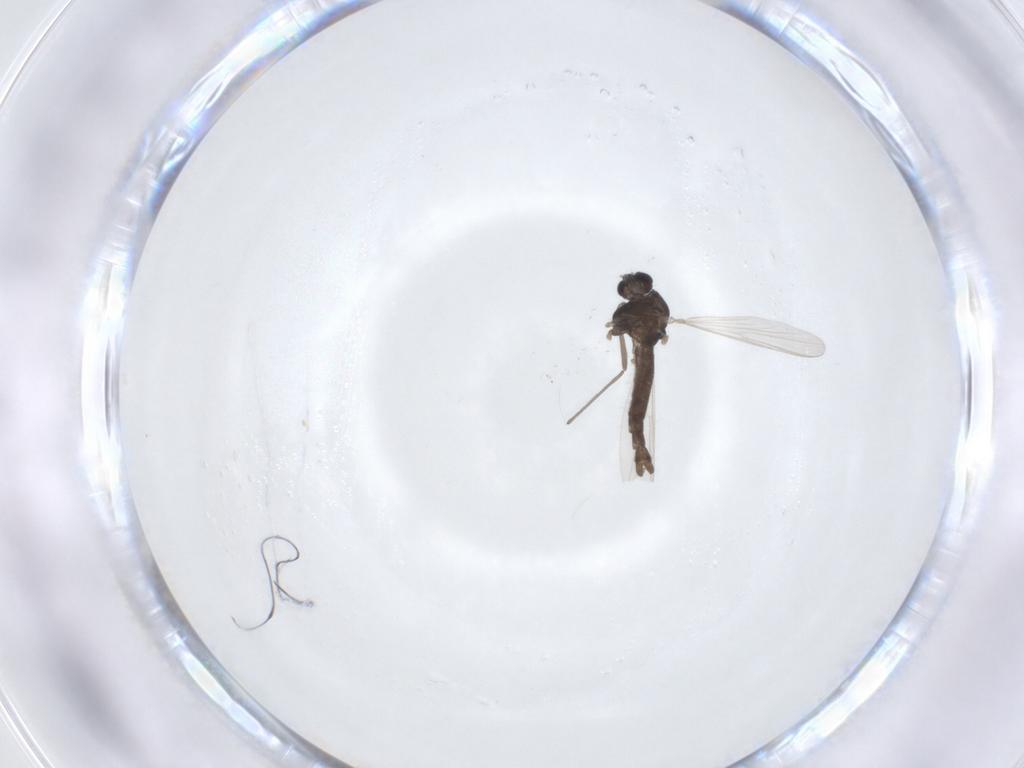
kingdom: Animalia
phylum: Arthropoda
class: Insecta
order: Diptera
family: Chironomidae
